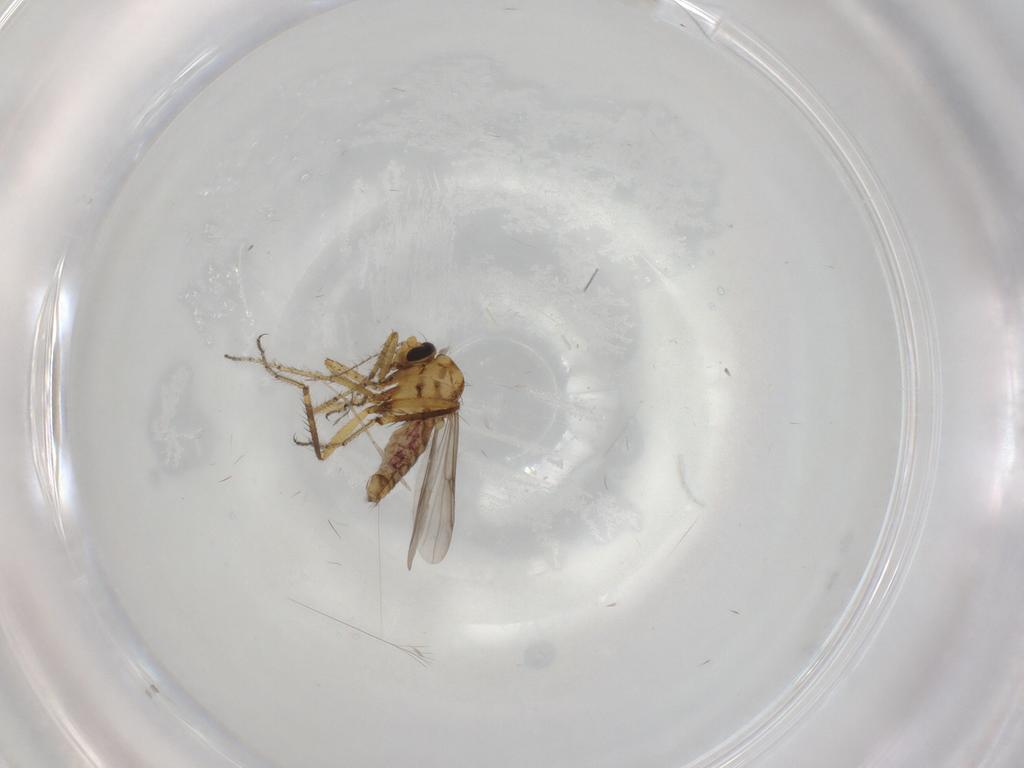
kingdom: Animalia
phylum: Arthropoda
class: Insecta
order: Diptera
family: Phoridae
